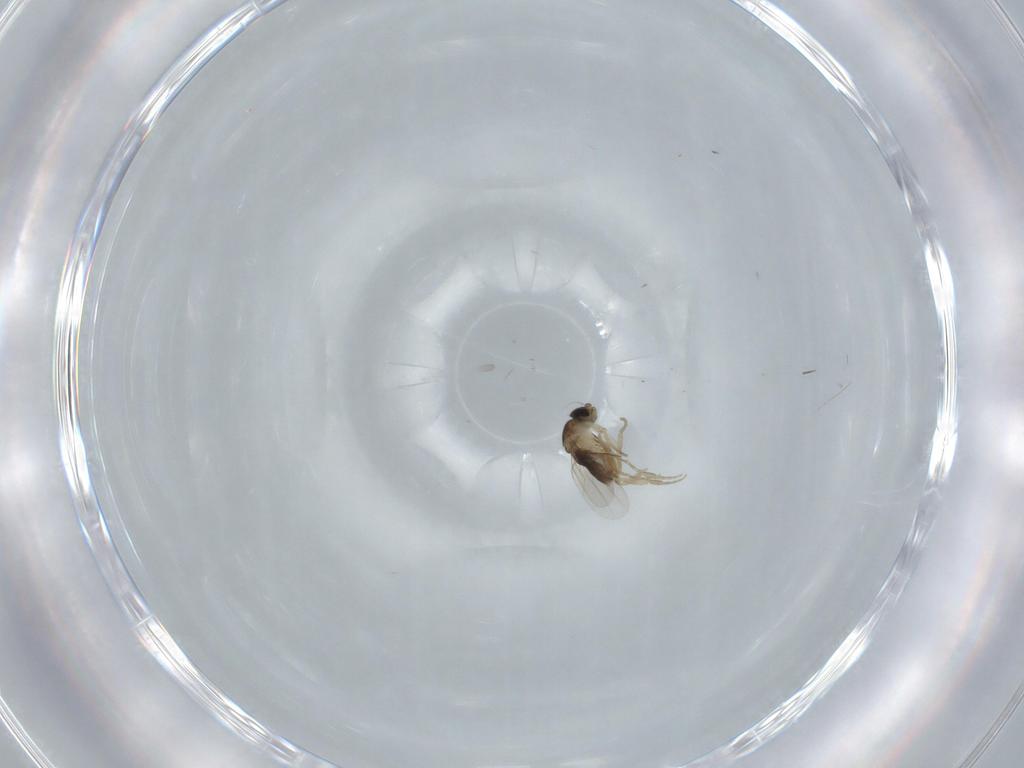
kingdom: Animalia
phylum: Arthropoda
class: Insecta
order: Diptera
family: Phoridae
